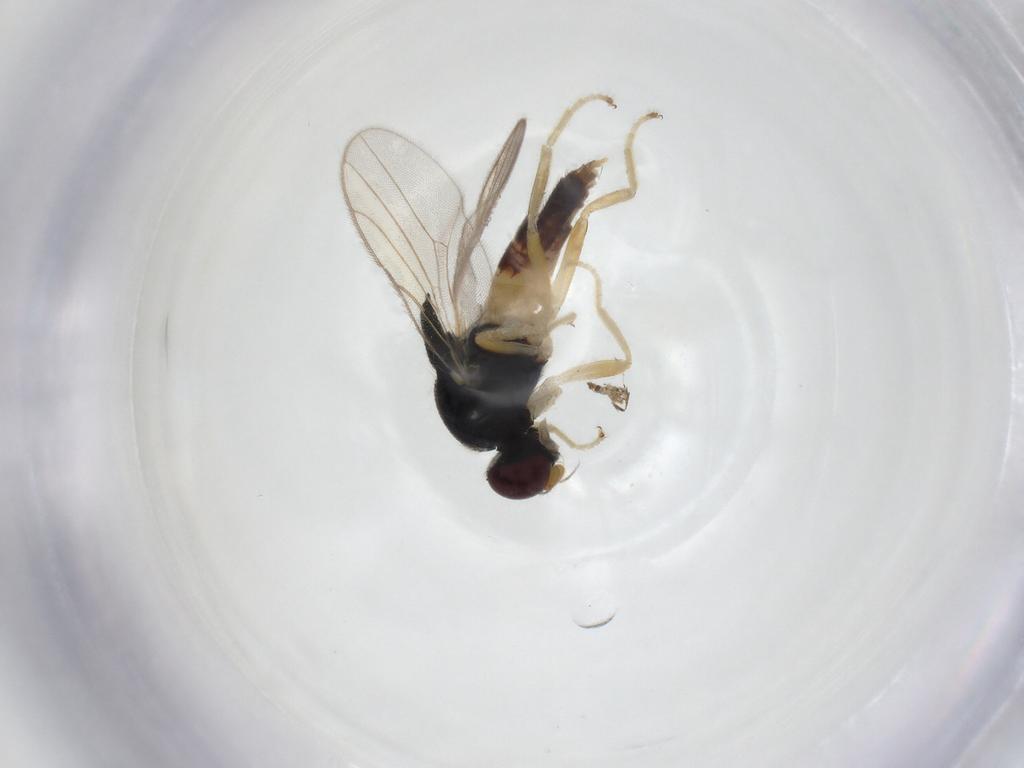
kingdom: Animalia
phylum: Arthropoda
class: Insecta
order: Diptera
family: Chloropidae
